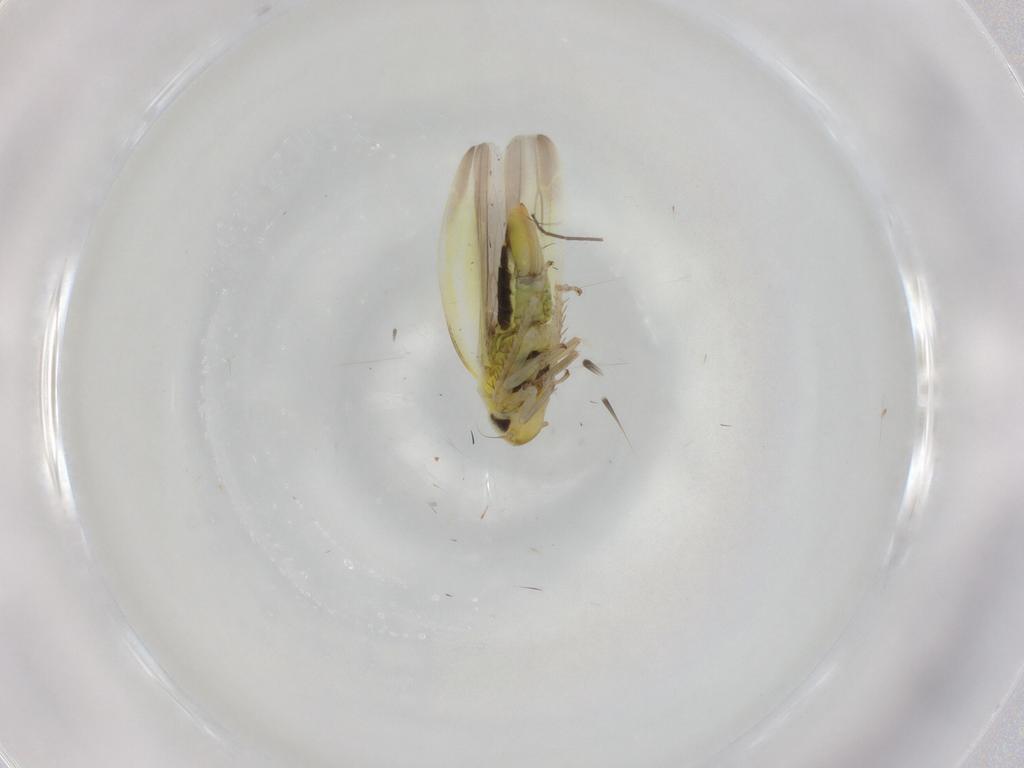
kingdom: Animalia
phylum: Arthropoda
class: Insecta
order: Hemiptera
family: Cicadellidae
